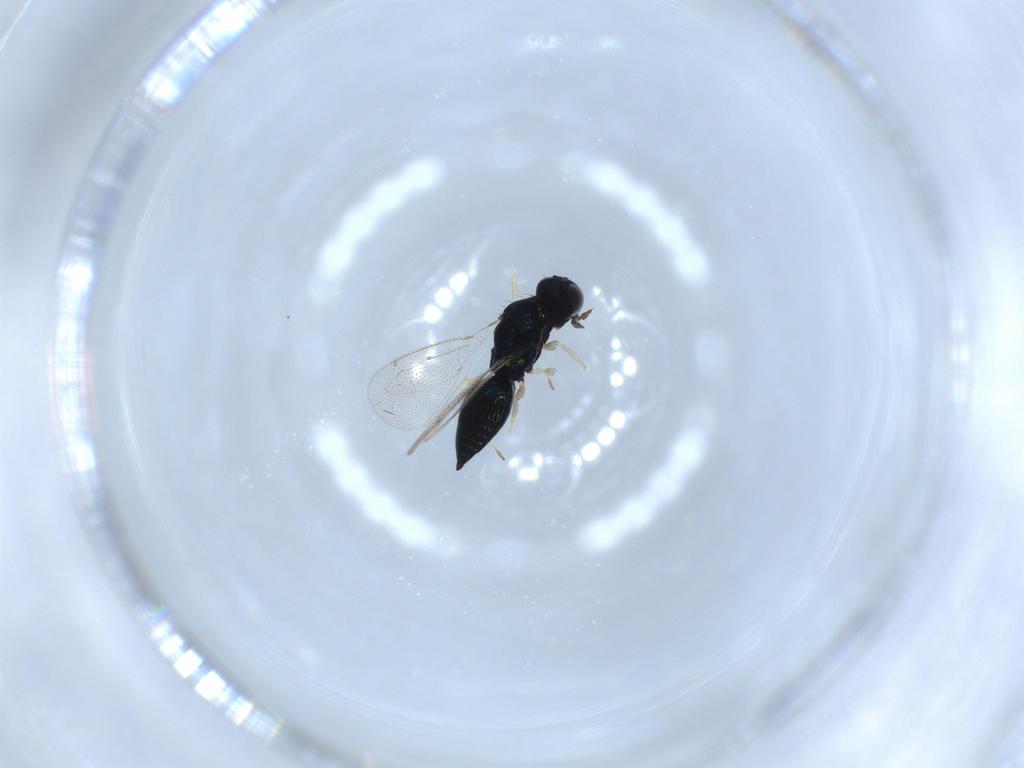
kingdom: Animalia
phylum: Arthropoda
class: Insecta
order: Hymenoptera
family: Eulophidae
